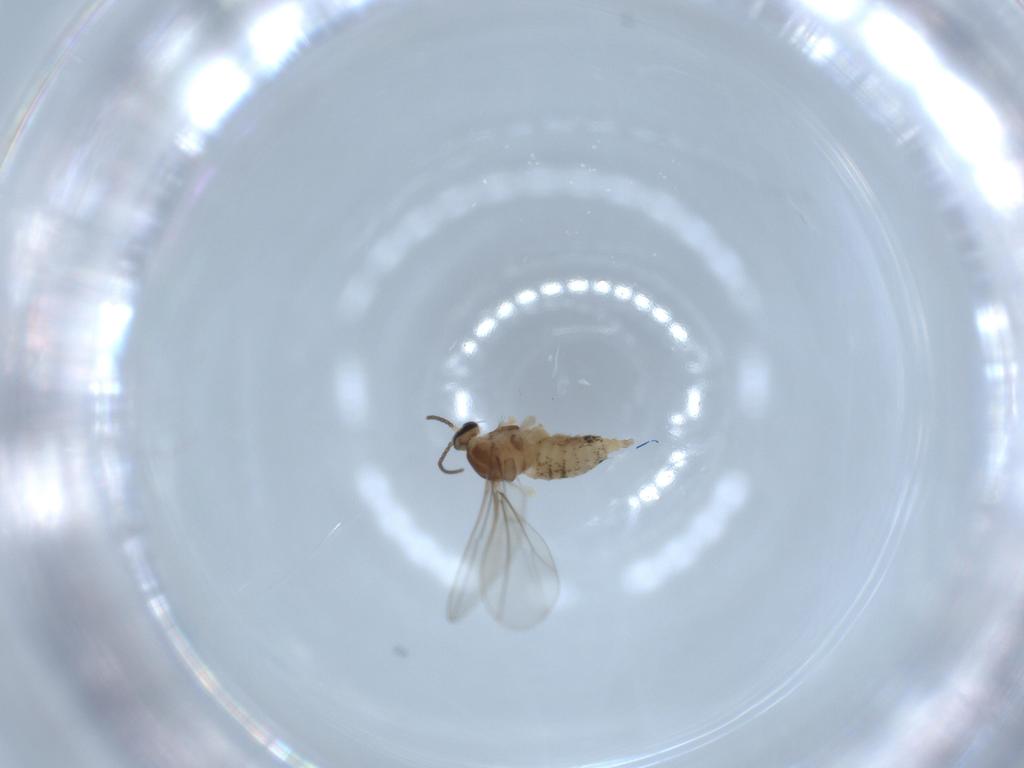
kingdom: Animalia
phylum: Arthropoda
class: Insecta
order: Diptera
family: Cecidomyiidae
